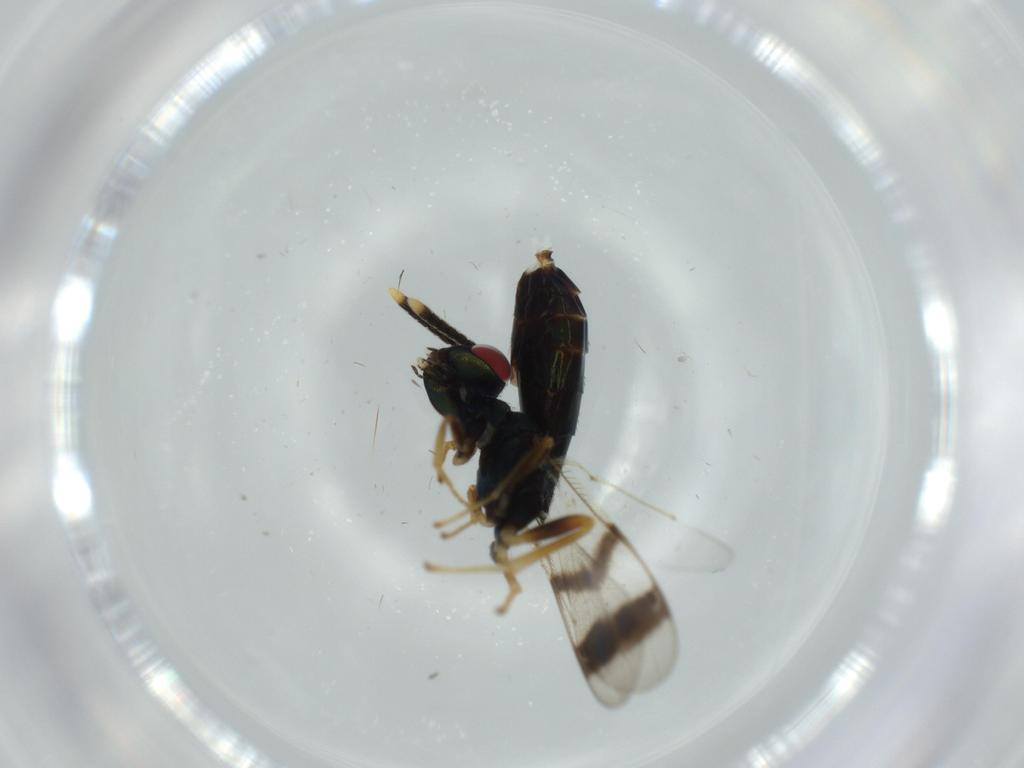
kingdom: Animalia
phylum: Arthropoda
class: Insecta
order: Hymenoptera
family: Pteromalidae
